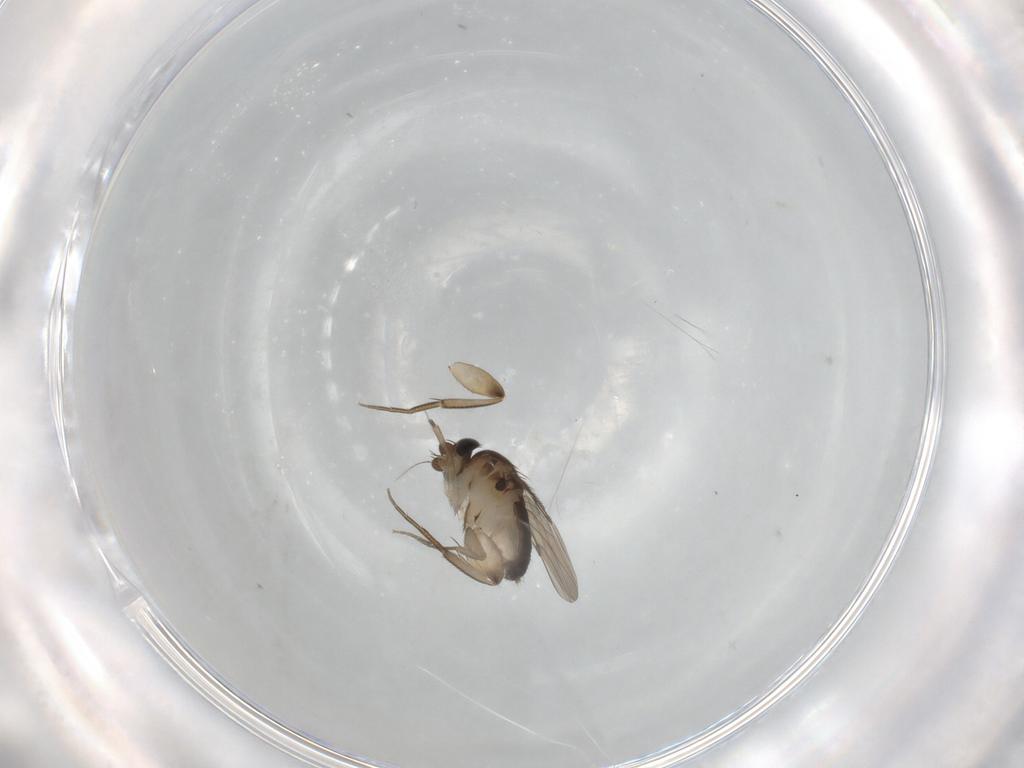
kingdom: Animalia
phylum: Arthropoda
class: Insecta
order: Diptera
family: Phoridae
